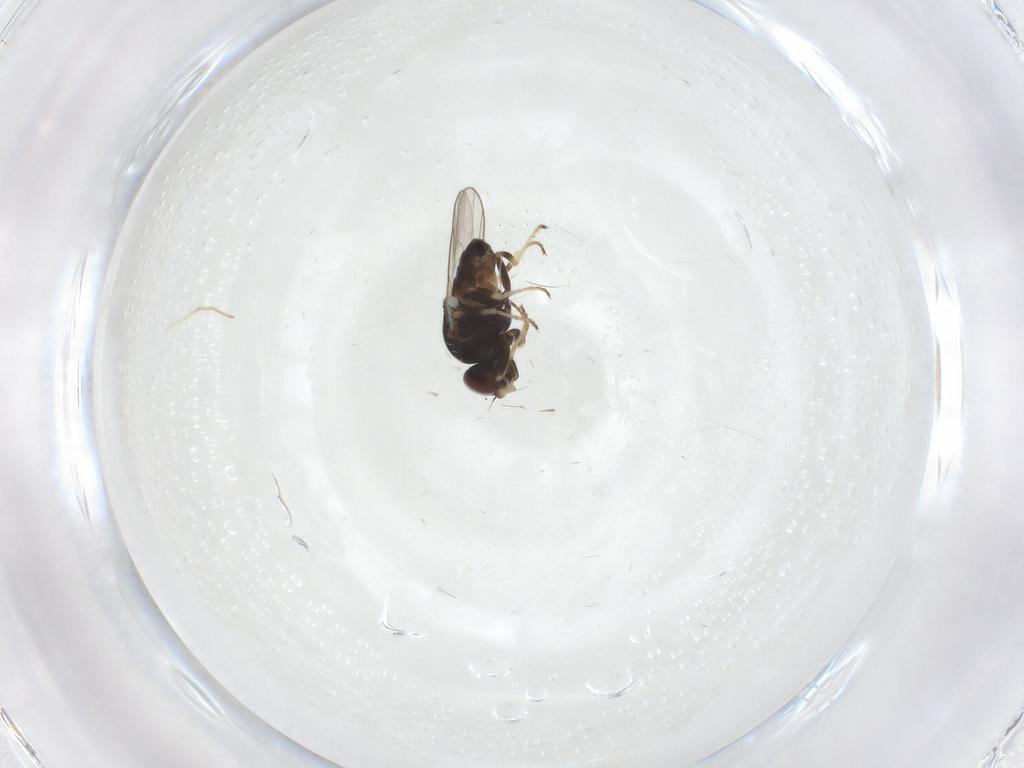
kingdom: Animalia
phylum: Arthropoda
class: Insecta
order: Diptera
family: Chloropidae
